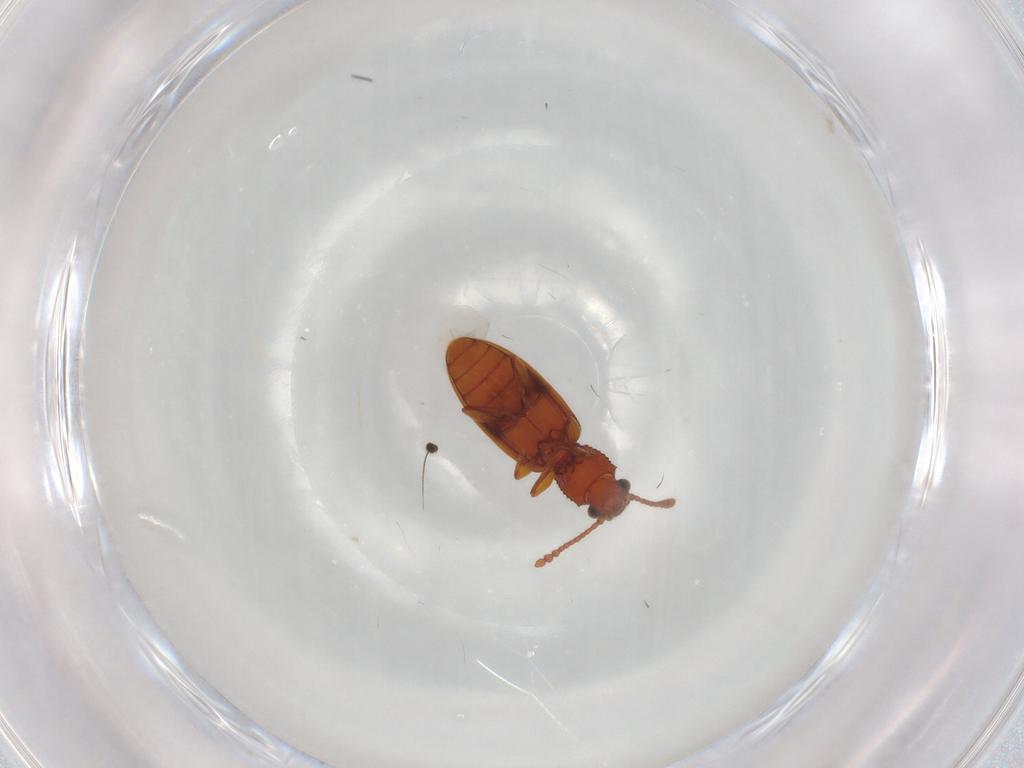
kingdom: Animalia
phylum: Arthropoda
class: Insecta
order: Coleoptera
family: Silvanidae
